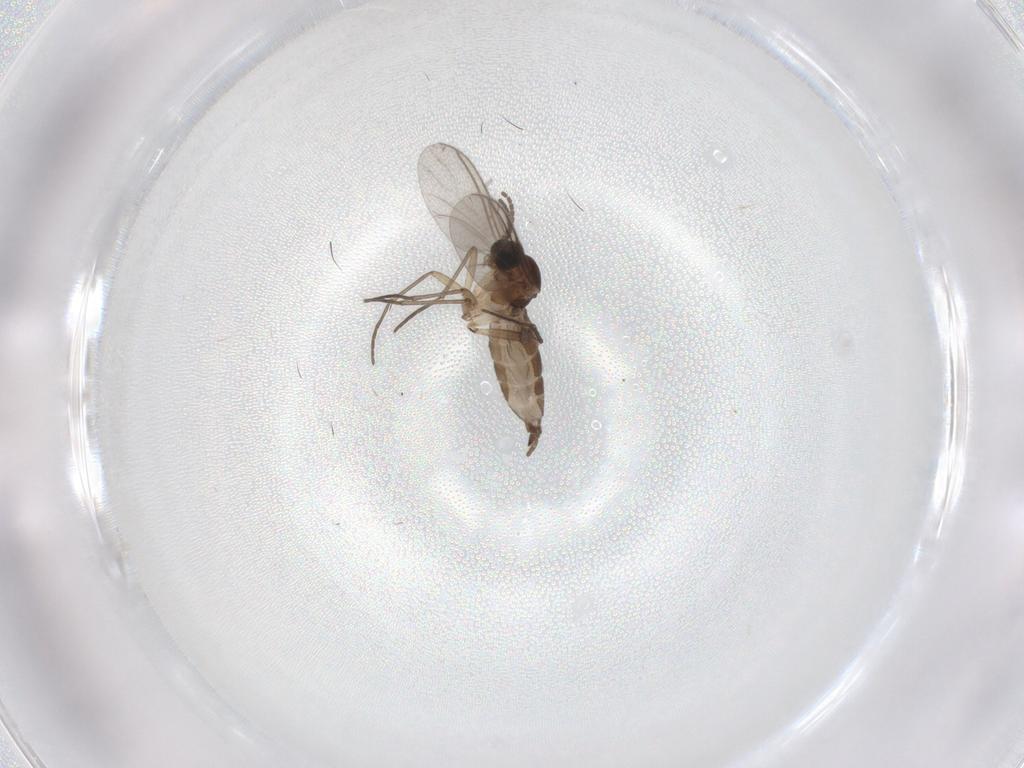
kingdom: Animalia
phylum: Arthropoda
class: Insecta
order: Diptera
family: Sciaridae
